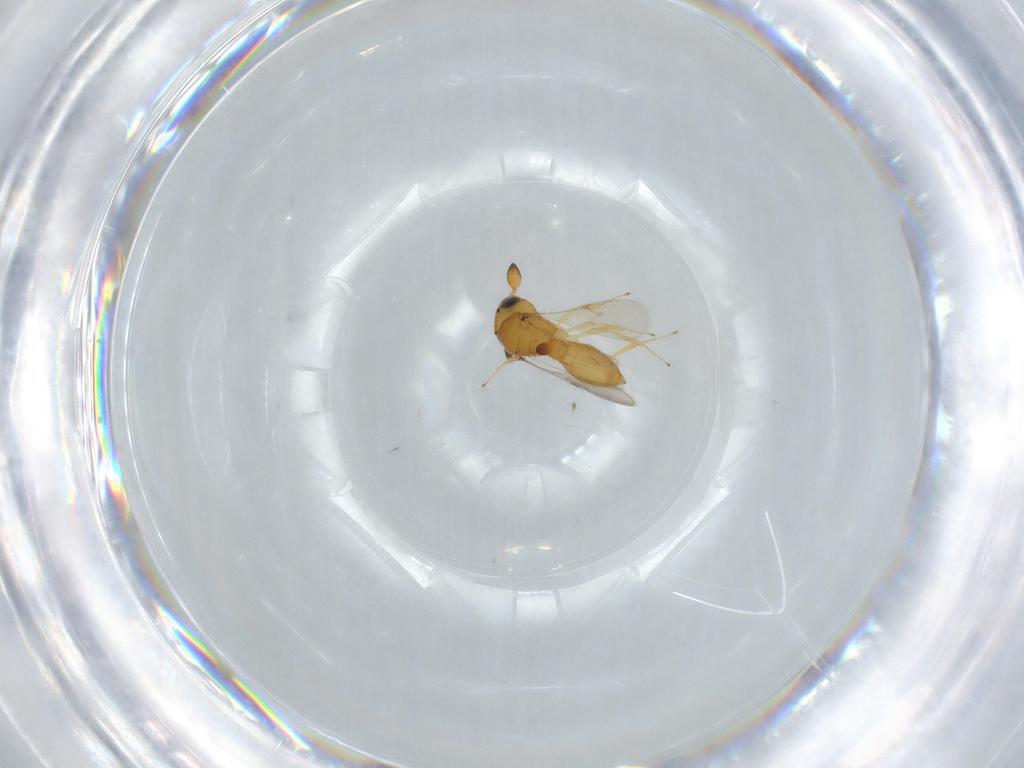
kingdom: Animalia
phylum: Arthropoda
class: Insecta
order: Hymenoptera
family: Scelionidae
